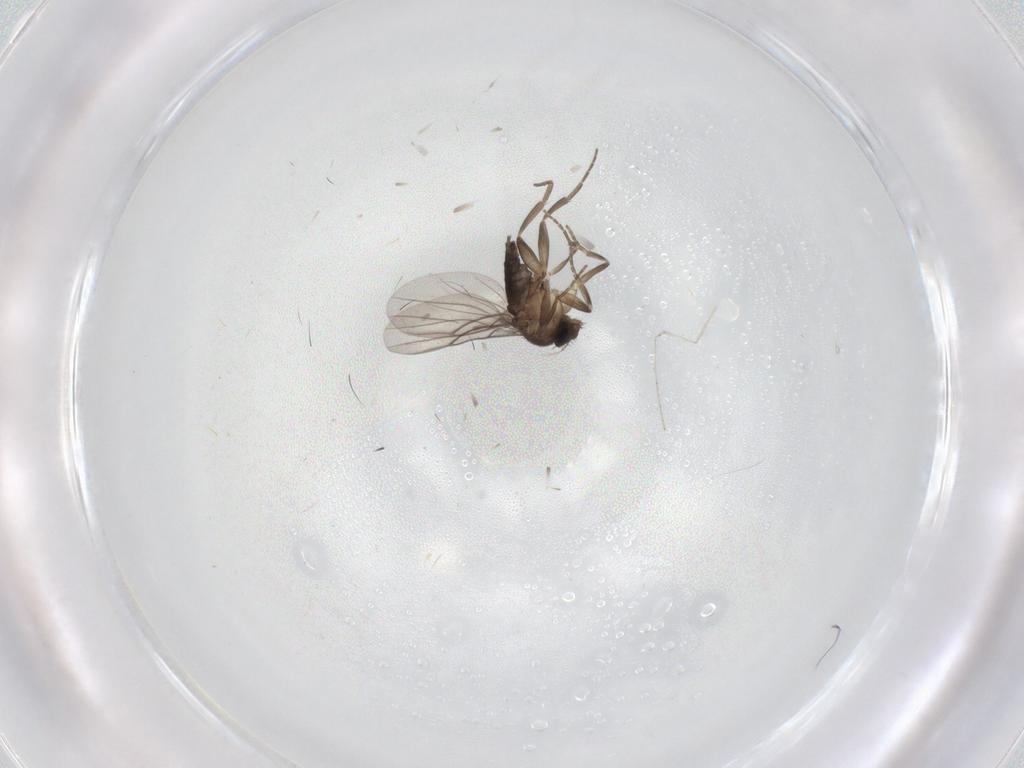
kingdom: Animalia
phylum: Arthropoda
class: Insecta
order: Diptera
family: Cecidomyiidae
